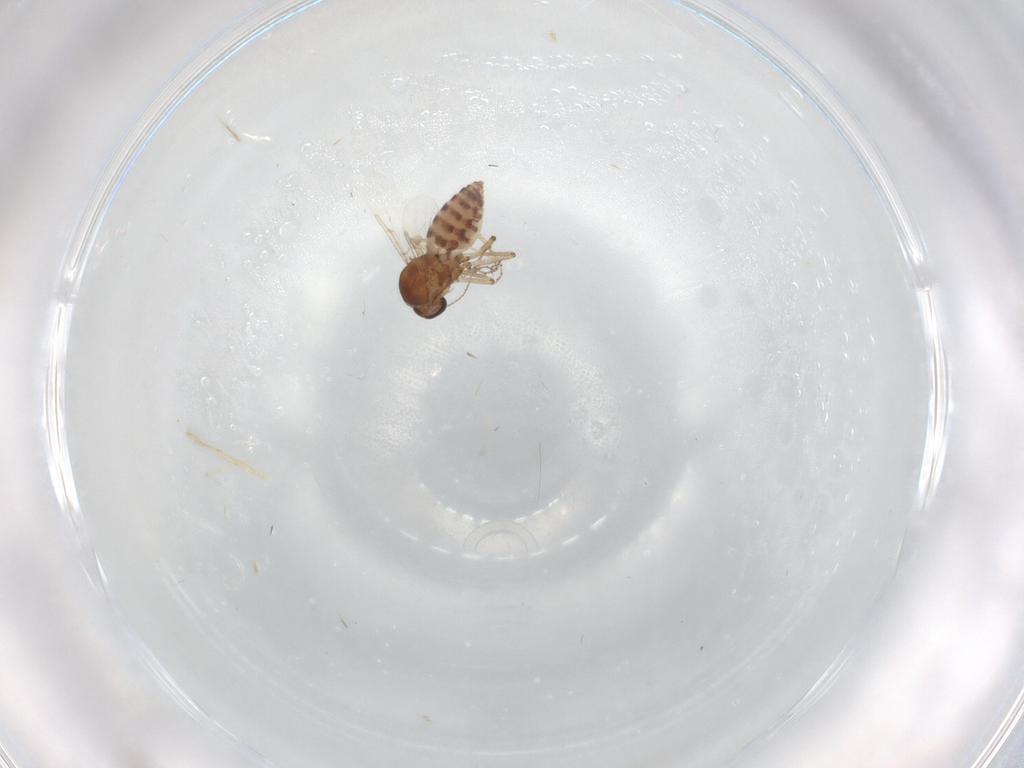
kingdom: Animalia
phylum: Arthropoda
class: Insecta
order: Diptera
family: Ceratopogonidae
